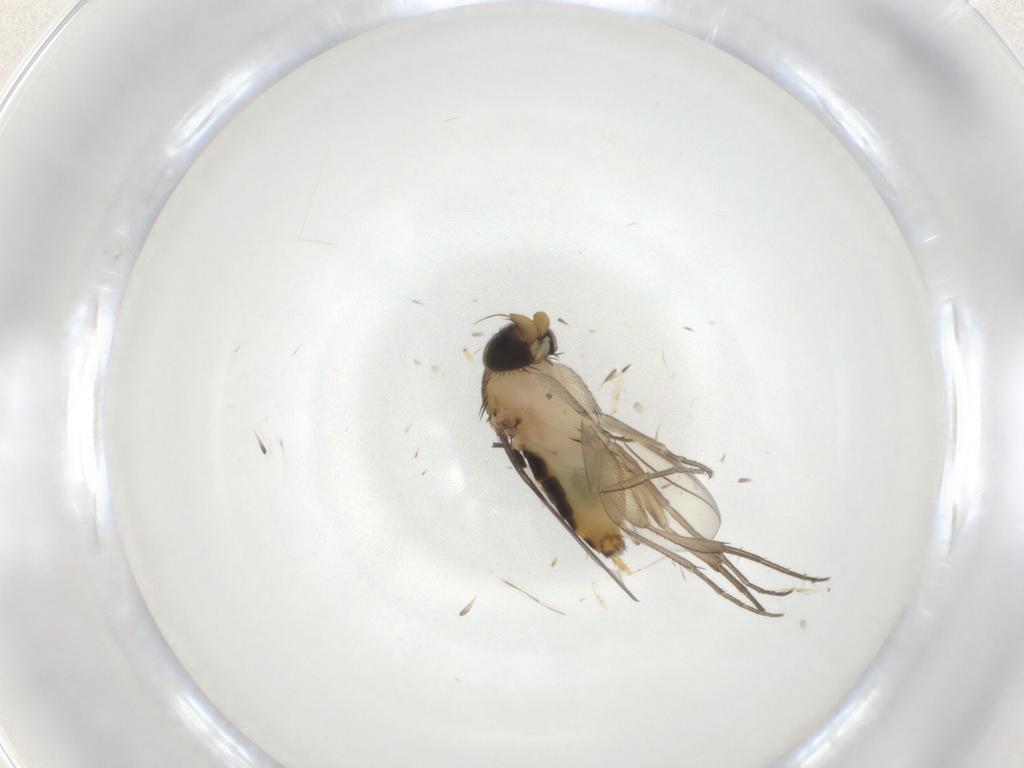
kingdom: Animalia
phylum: Arthropoda
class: Insecta
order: Diptera
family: Phoridae
